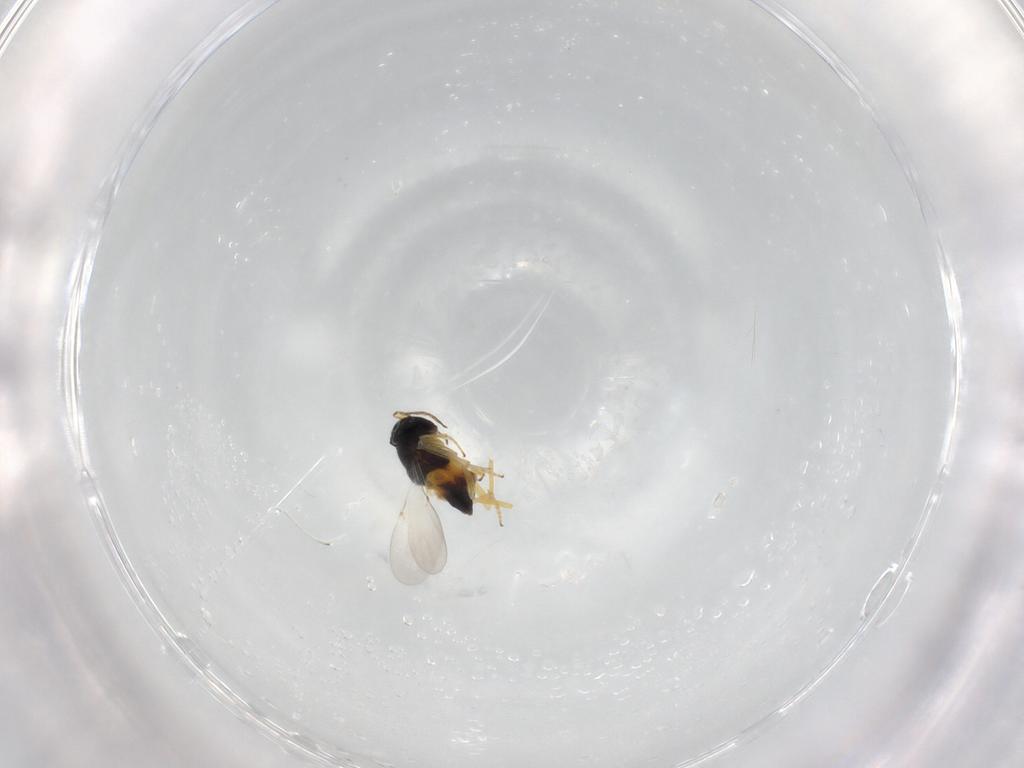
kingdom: Animalia
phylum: Arthropoda
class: Insecta
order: Hymenoptera
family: Encyrtidae
